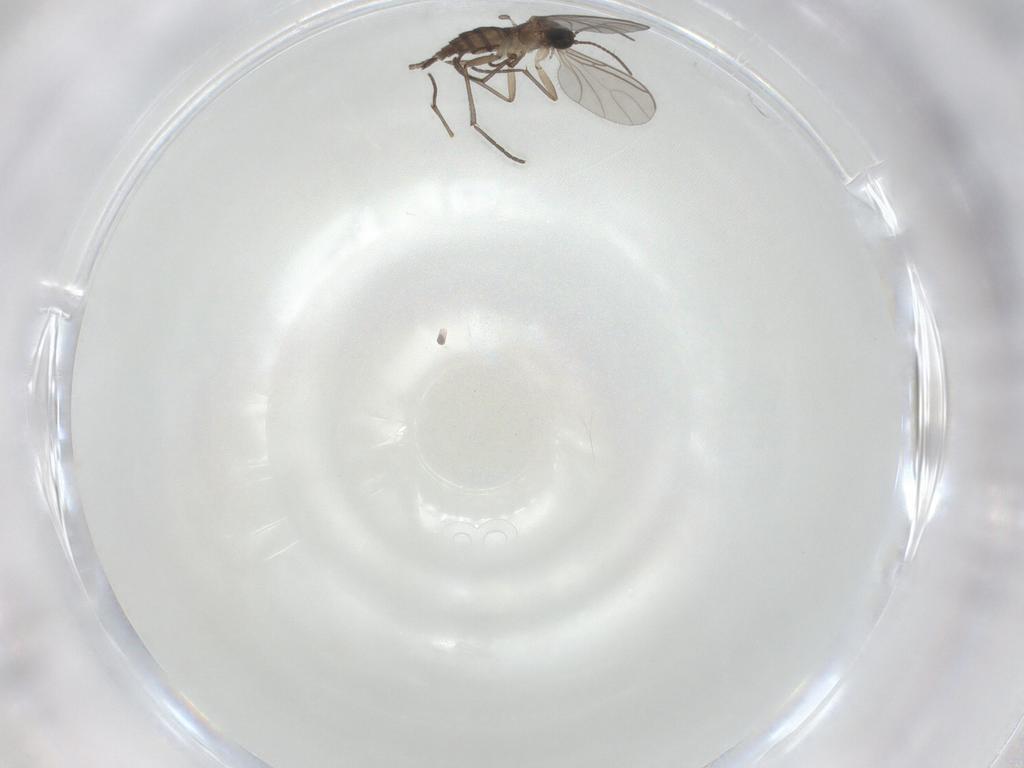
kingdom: Animalia
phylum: Arthropoda
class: Insecta
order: Diptera
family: Sciaridae
